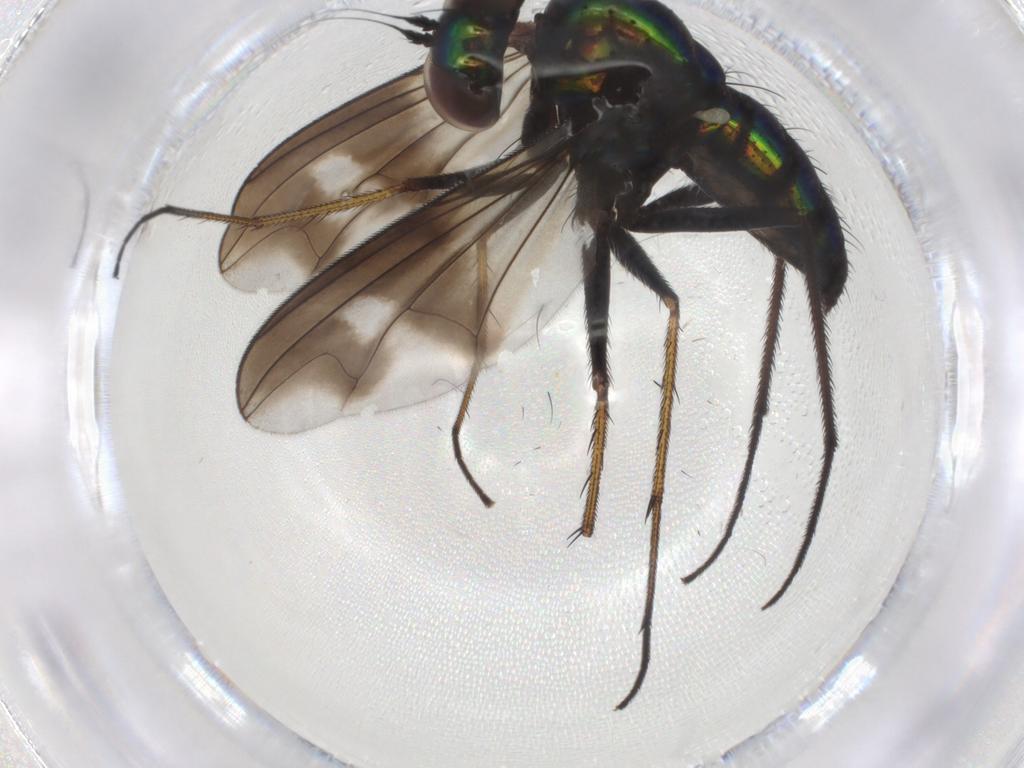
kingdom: Animalia
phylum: Arthropoda
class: Insecta
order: Diptera
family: Dolichopodidae
